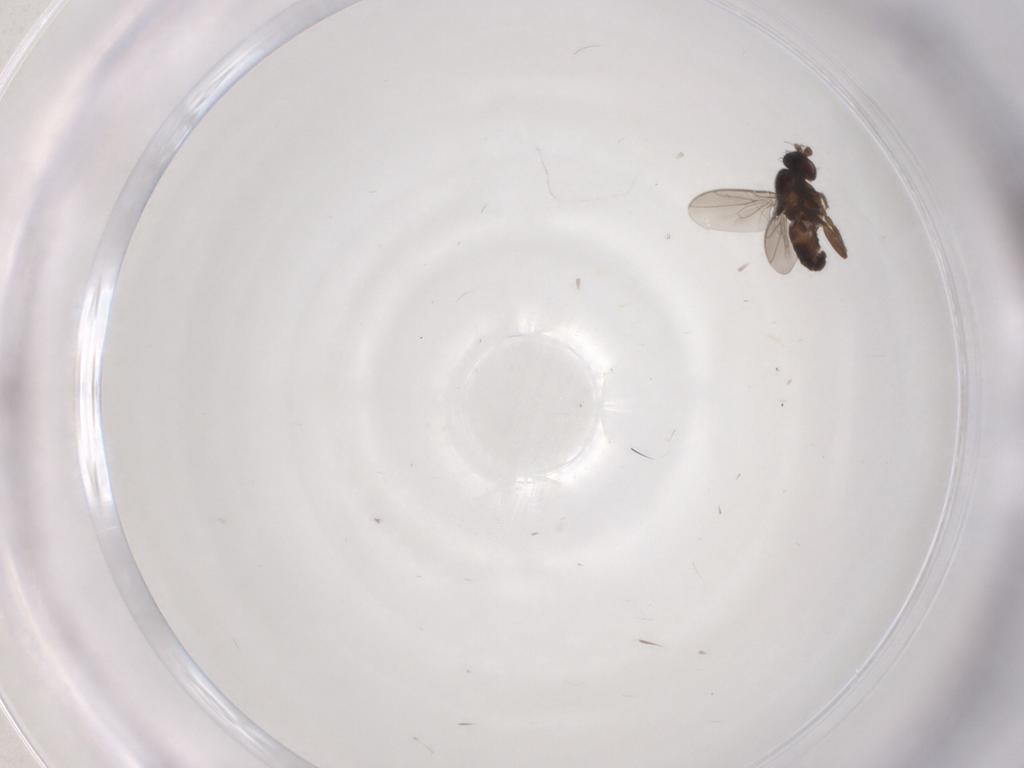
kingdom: Animalia
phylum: Arthropoda
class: Insecta
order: Diptera
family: Sphaeroceridae
